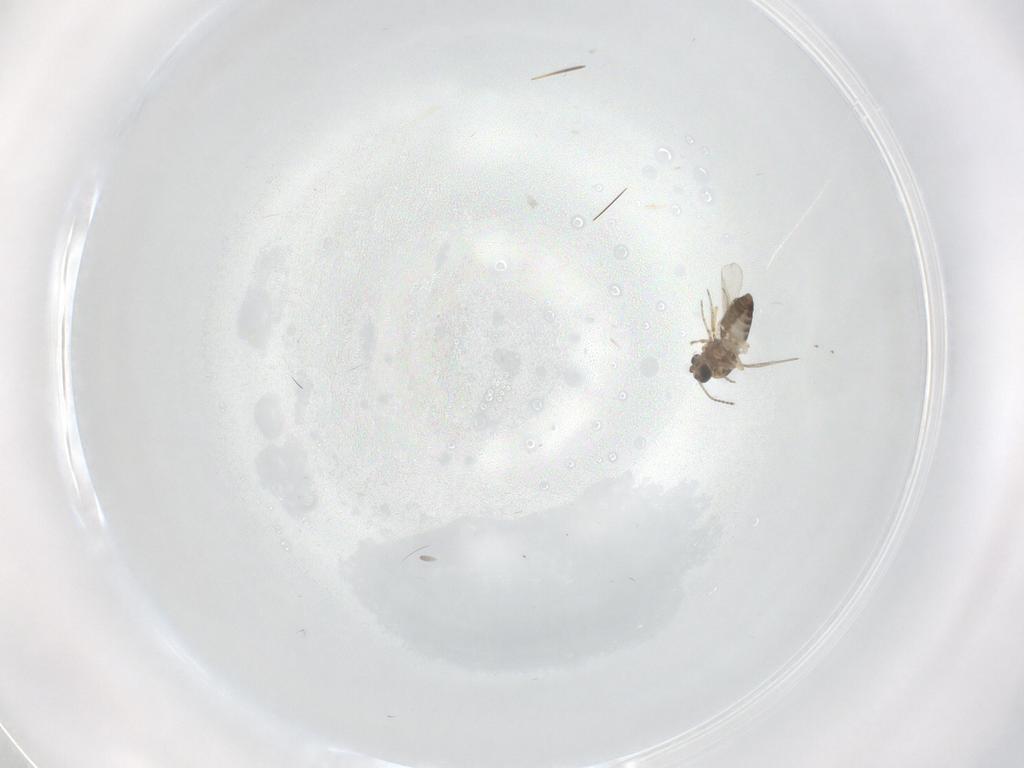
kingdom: Animalia
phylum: Arthropoda
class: Insecta
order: Diptera
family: Ceratopogonidae
